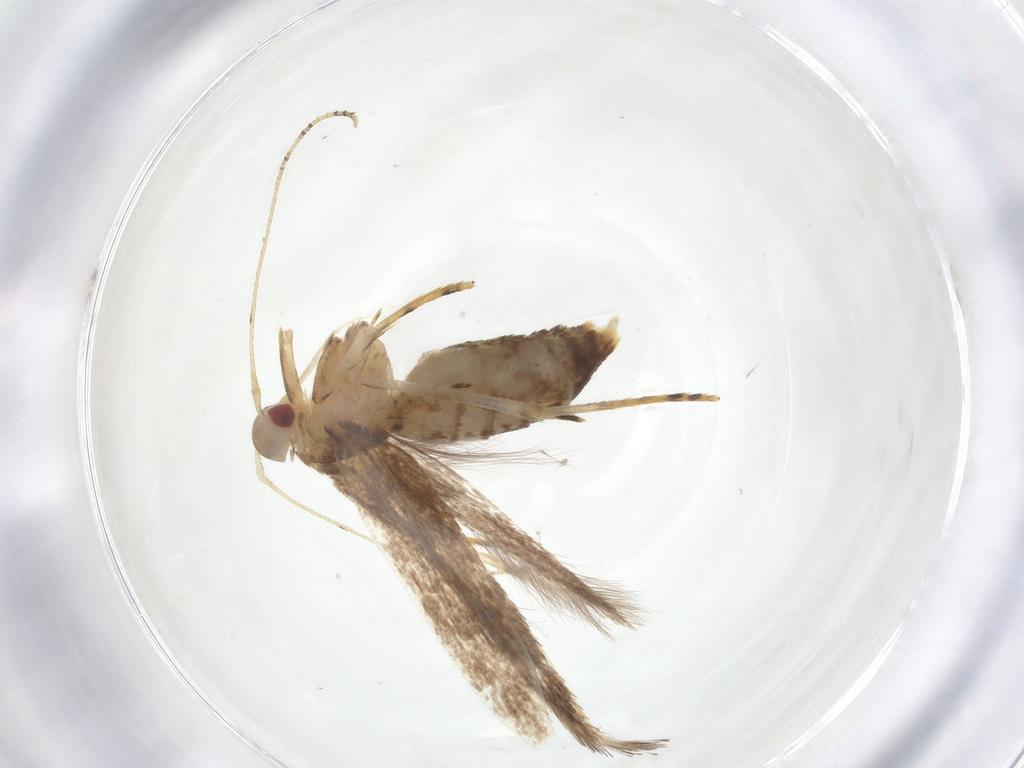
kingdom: Animalia
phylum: Arthropoda
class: Insecta
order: Lepidoptera
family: Cosmopterigidae
